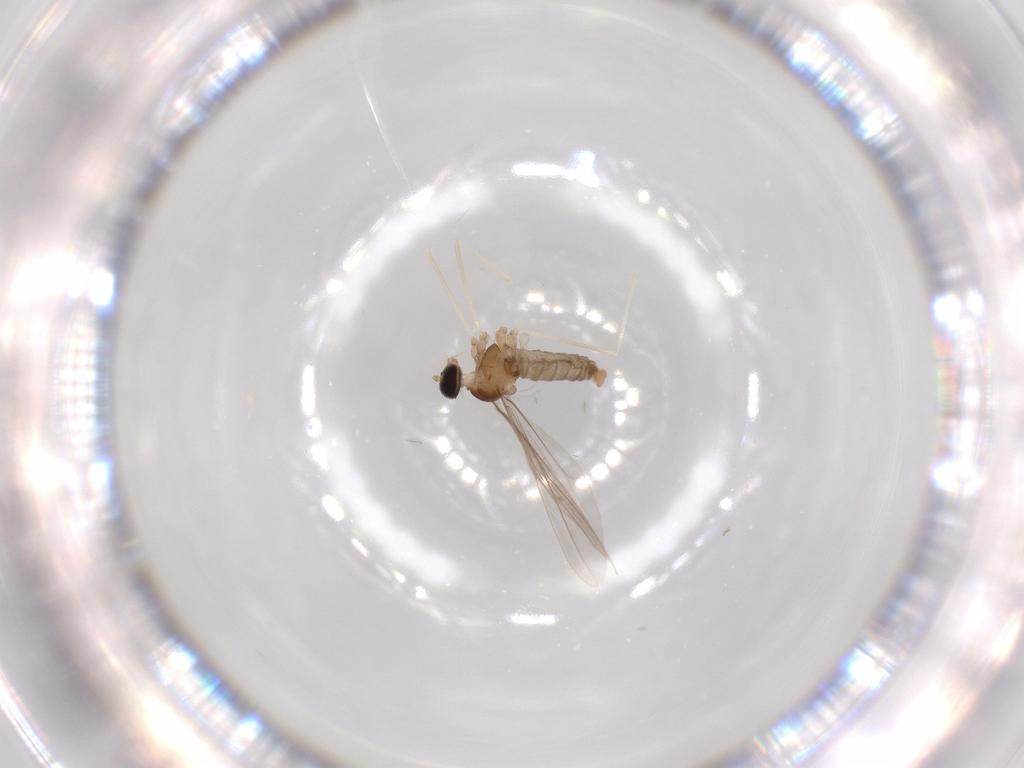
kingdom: Animalia
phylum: Arthropoda
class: Insecta
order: Diptera
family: Cecidomyiidae
